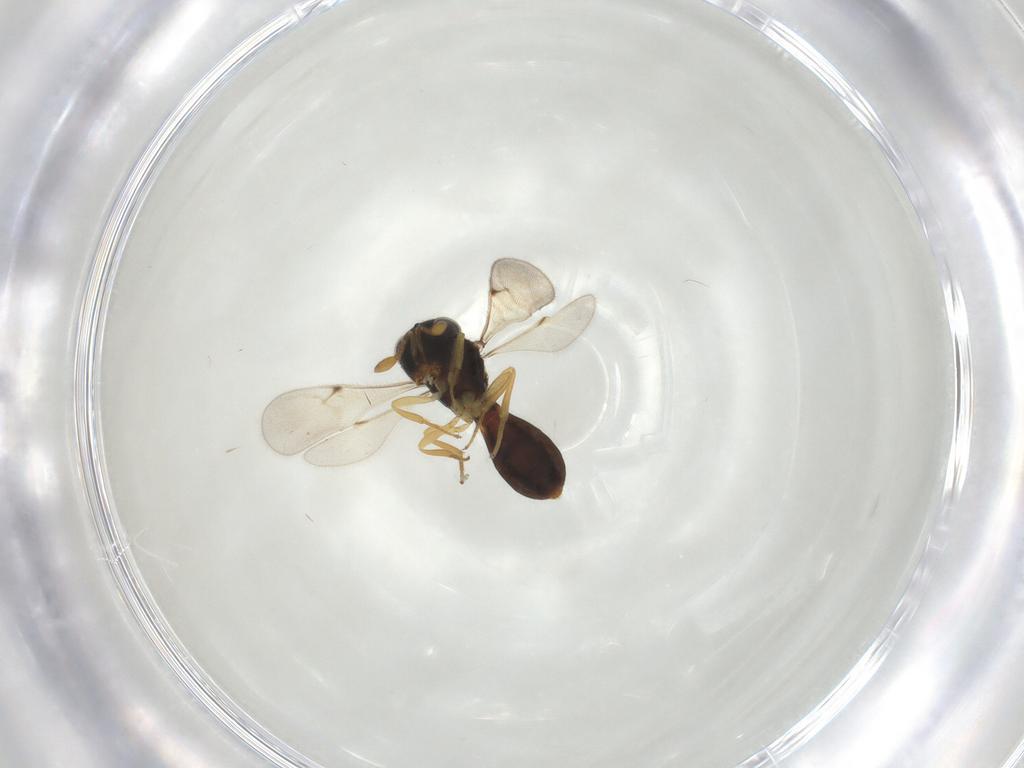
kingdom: Animalia
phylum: Arthropoda
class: Insecta
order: Hymenoptera
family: Scelionidae
